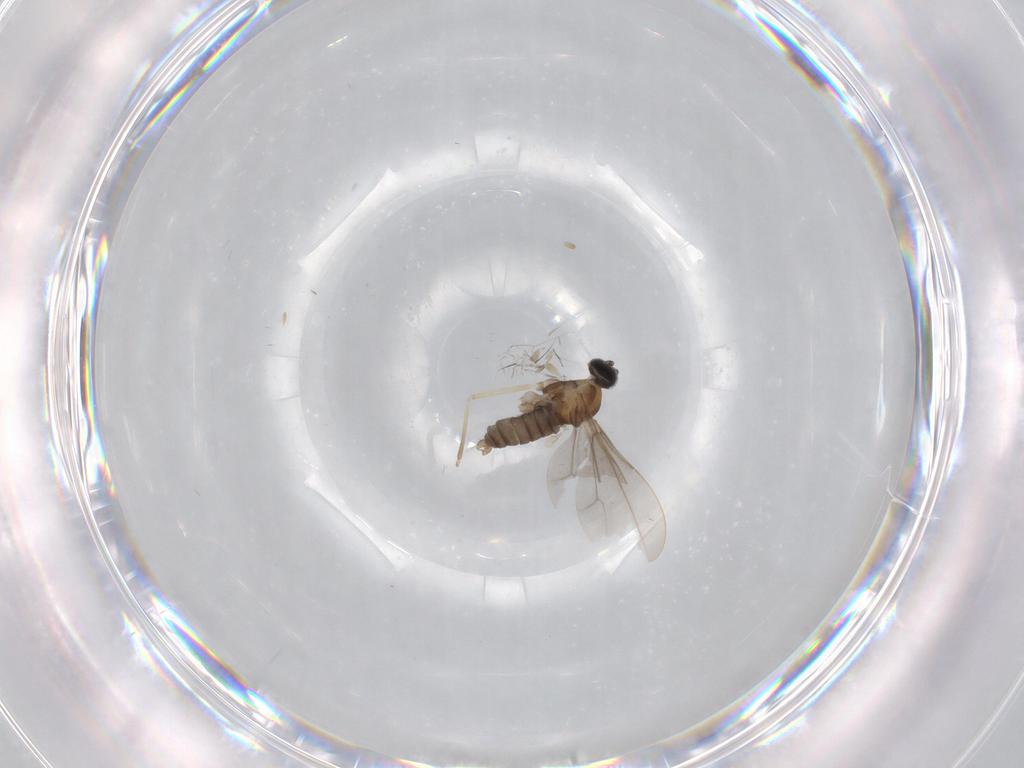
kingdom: Animalia
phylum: Arthropoda
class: Insecta
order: Diptera
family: Cecidomyiidae
